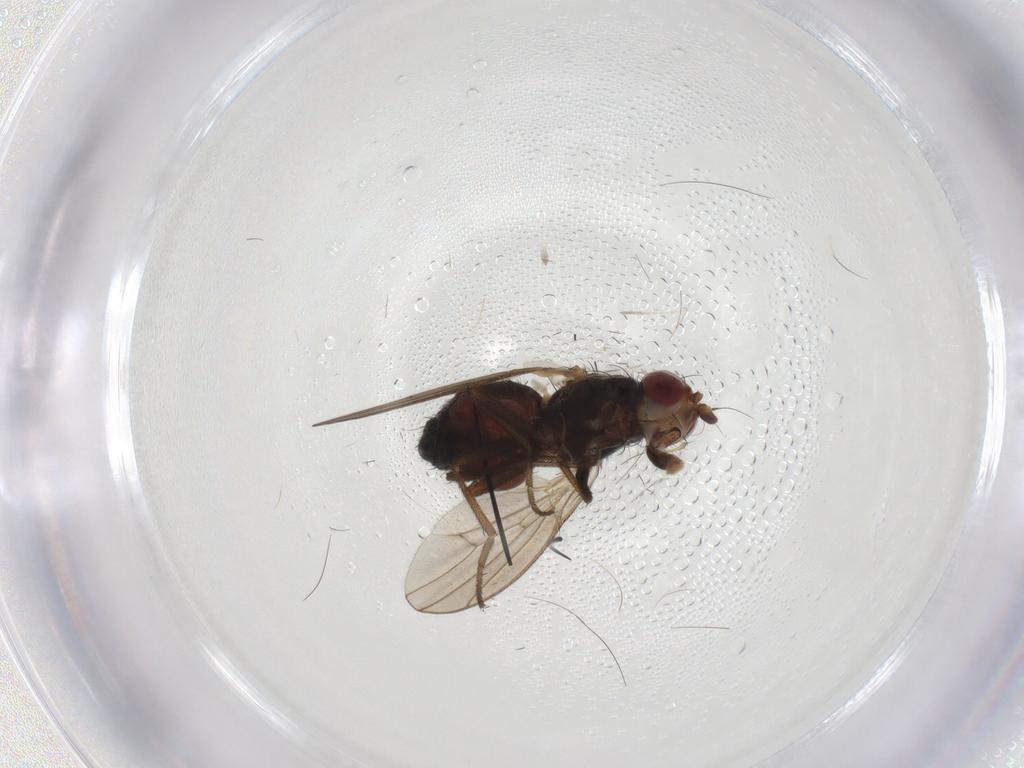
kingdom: Animalia
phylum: Arthropoda
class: Insecta
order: Diptera
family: Heleomyzidae
